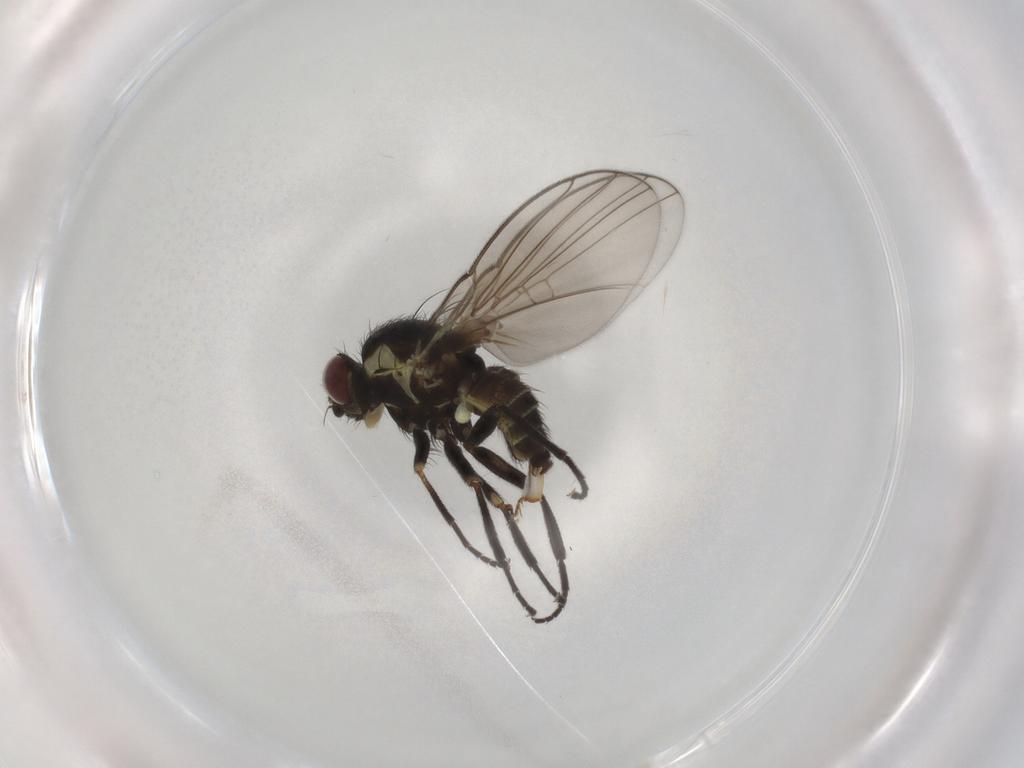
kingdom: Animalia
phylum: Arthropoda
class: Insecta
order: Diptera
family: Agromyzidae
